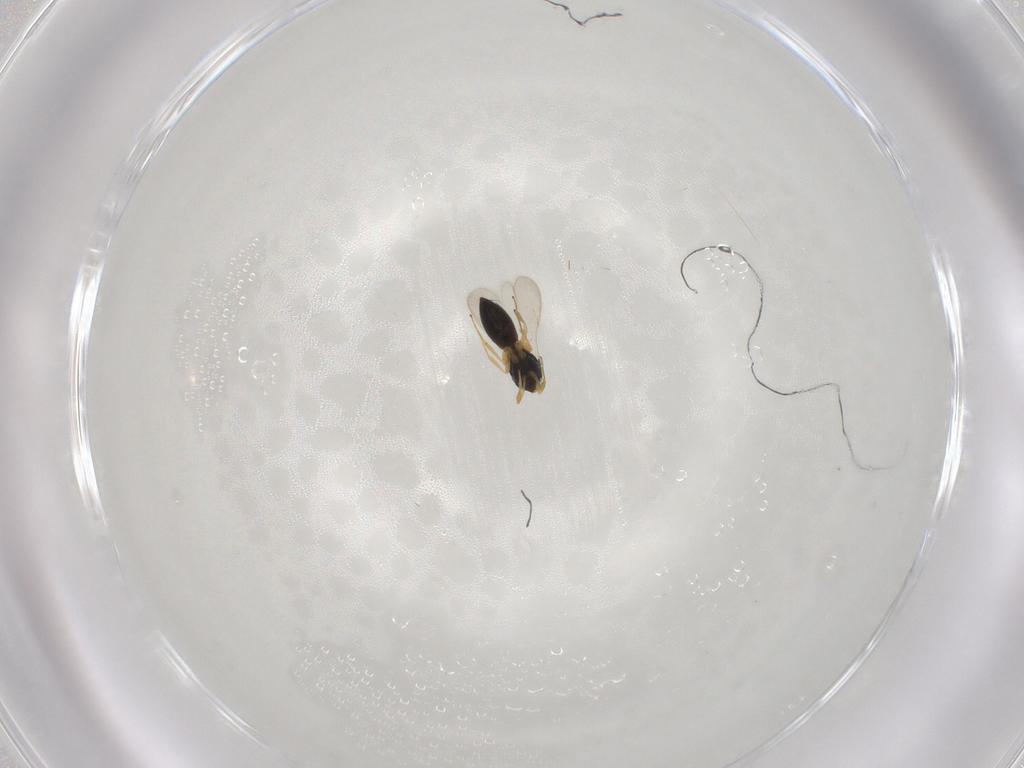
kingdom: Animalia
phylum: Arthropoda
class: Insecta
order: Hymenoptera
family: Scelionidae
